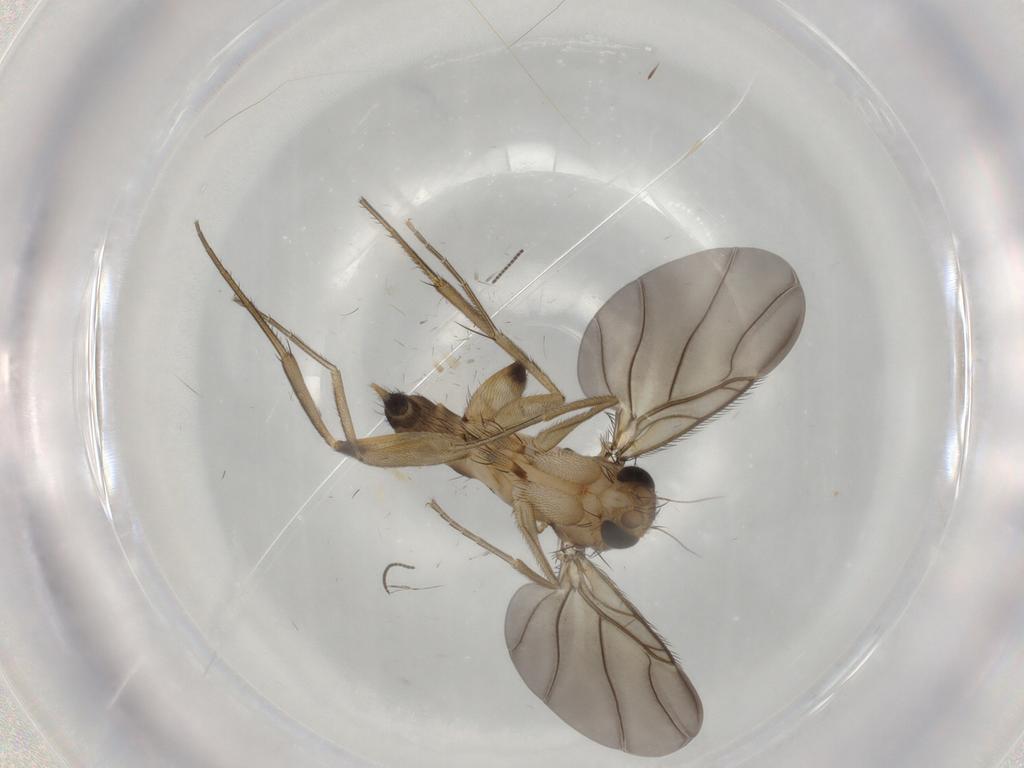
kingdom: Animalia
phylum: Arthropoda
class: Insecta
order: Diptera
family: Phoridae
